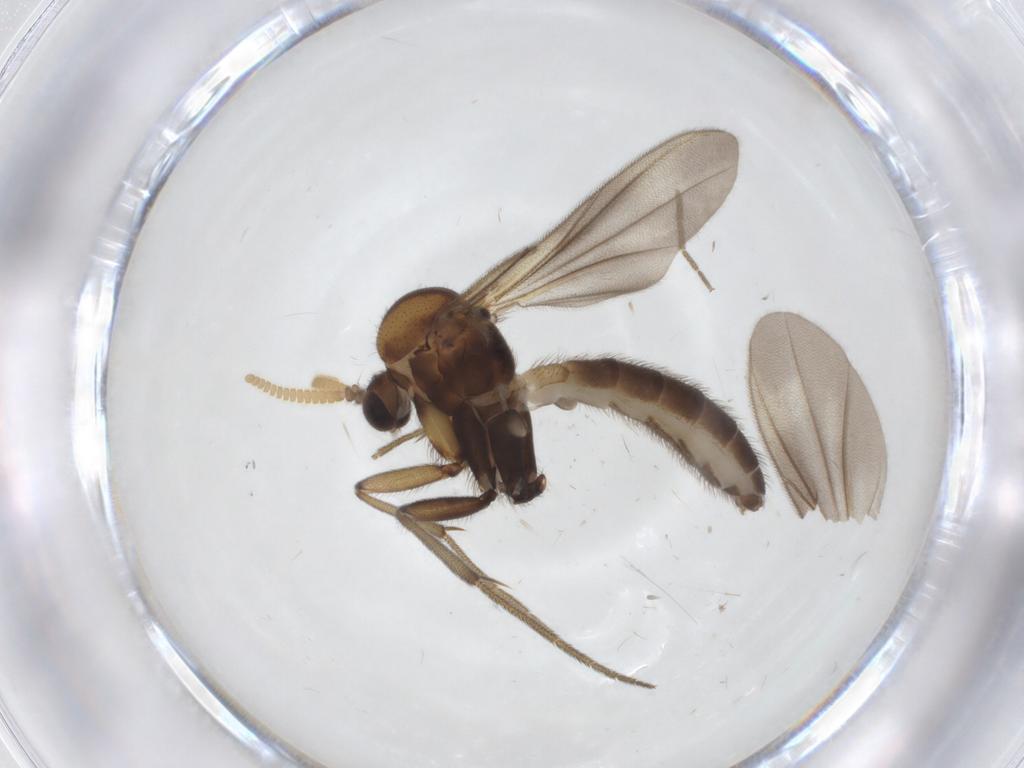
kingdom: Animalia
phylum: Arthropoda
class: Insecta
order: Diptera
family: Mycetophilidae
